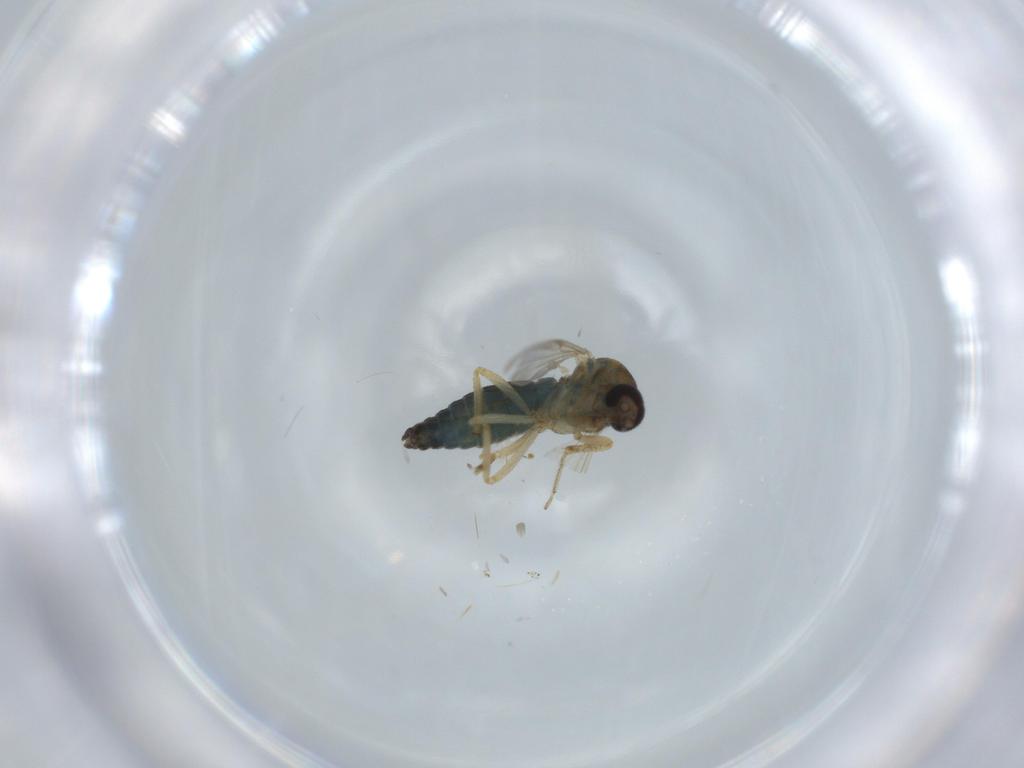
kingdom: Animalia
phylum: Arthropoda
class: Insecta
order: Diptera
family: Ceratopogonidae
